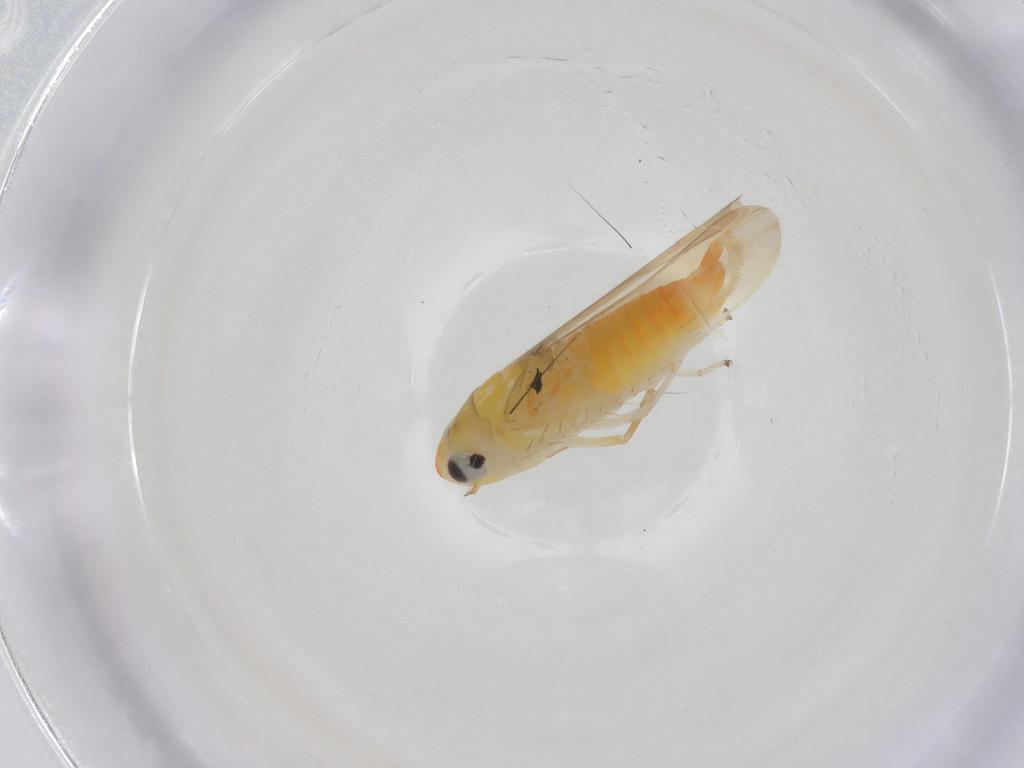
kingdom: Animalia
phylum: Arthropoda
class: Insecta
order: Hemiptera
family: Cicadellidae
